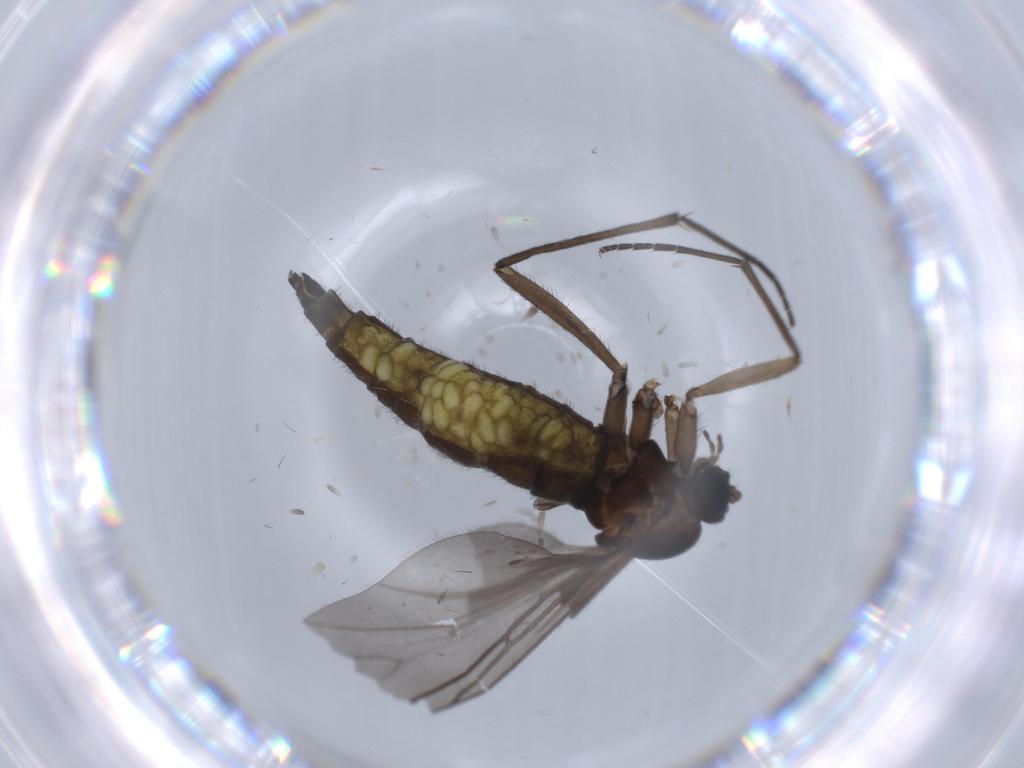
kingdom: Animalia
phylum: Arthropoda
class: Insecta
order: Diptera
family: Sciaridae
